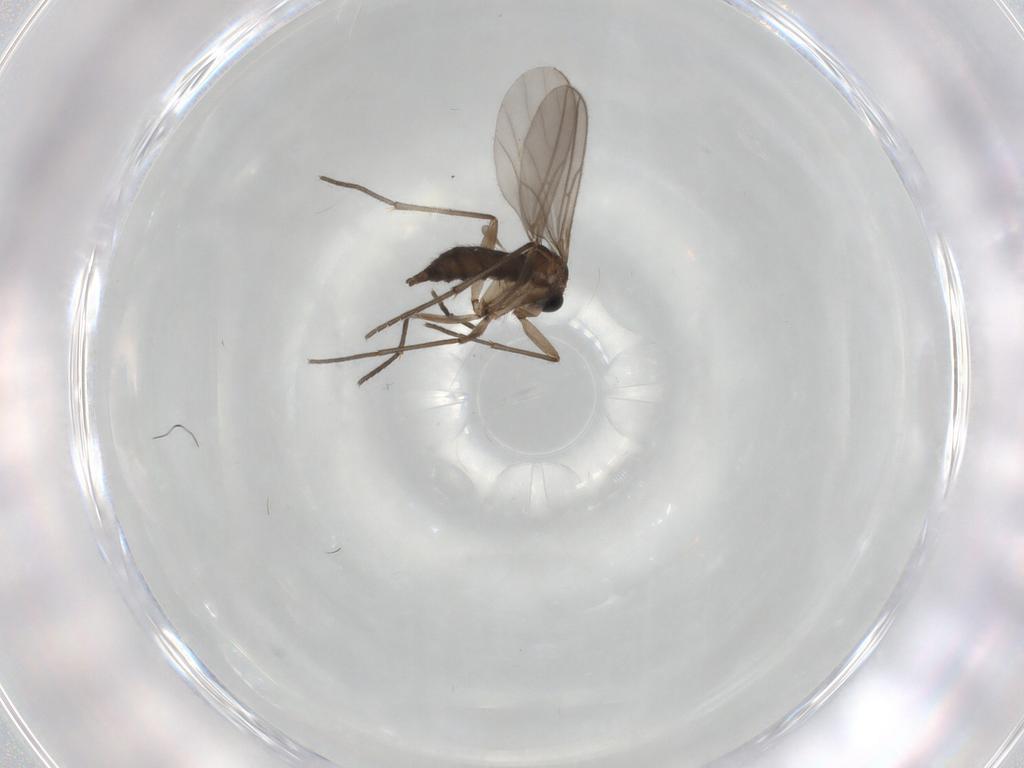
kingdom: Animalia
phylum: Arthropoda
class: Insecta
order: Diptera
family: Sciaridae
